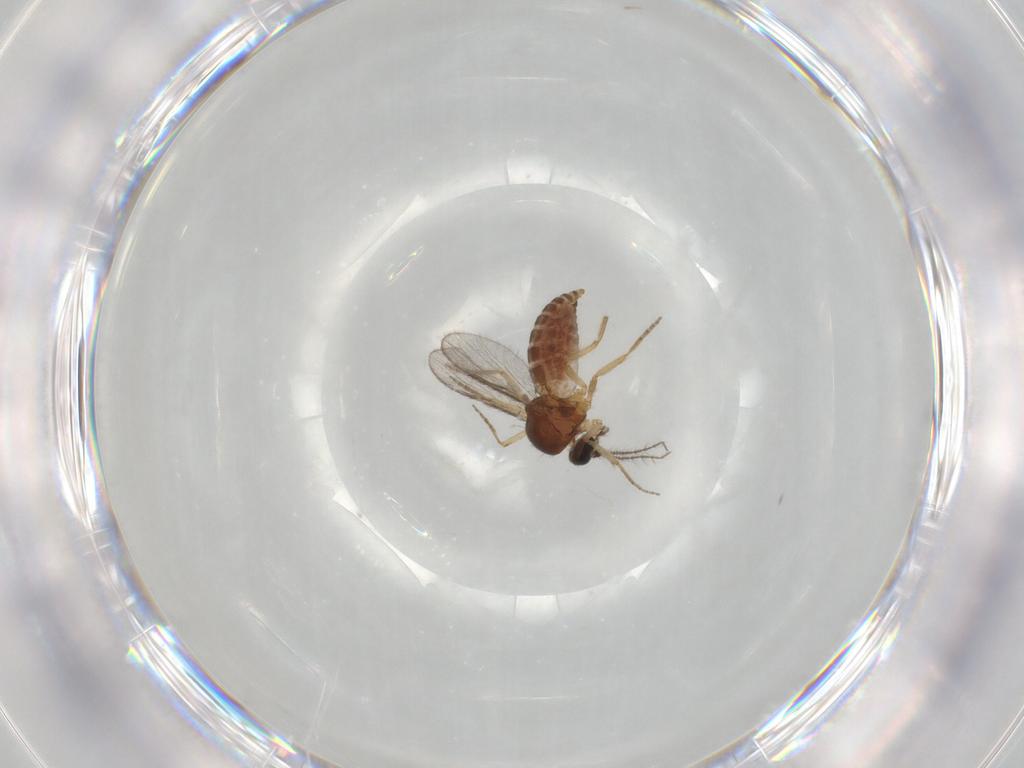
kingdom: Animalia
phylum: Arthropoda
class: Insecta
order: Diptera
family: Ceratopogonidae
